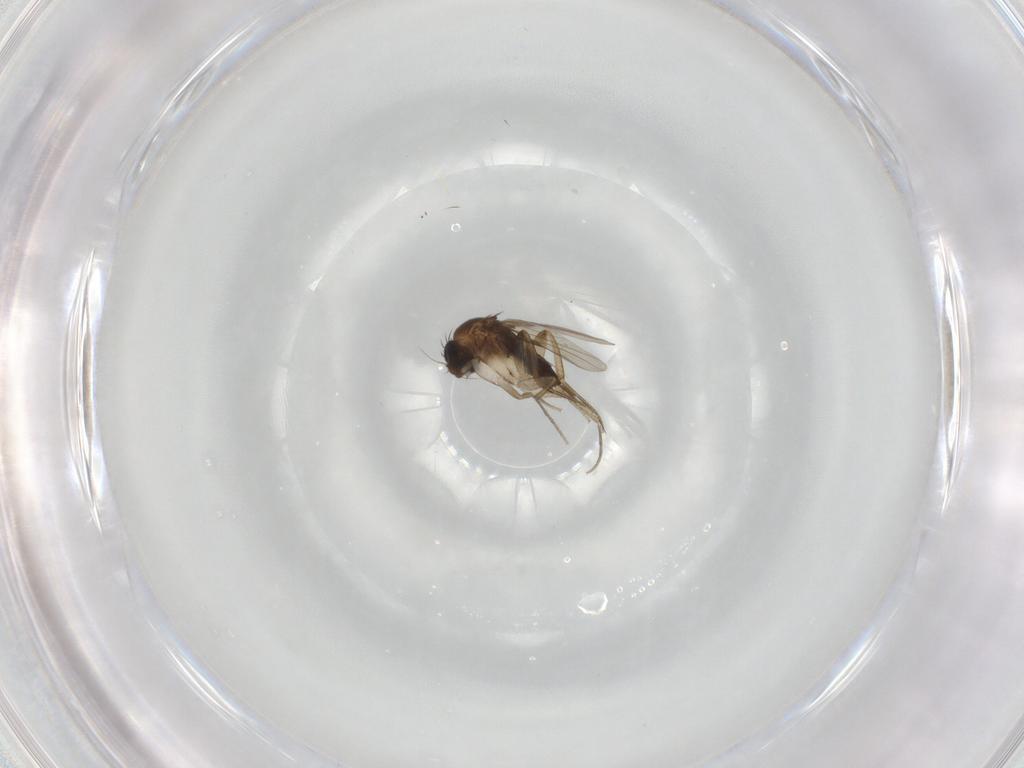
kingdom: Animalia
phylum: Arthropoda
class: Insecta
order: Diptera
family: Phoridae
